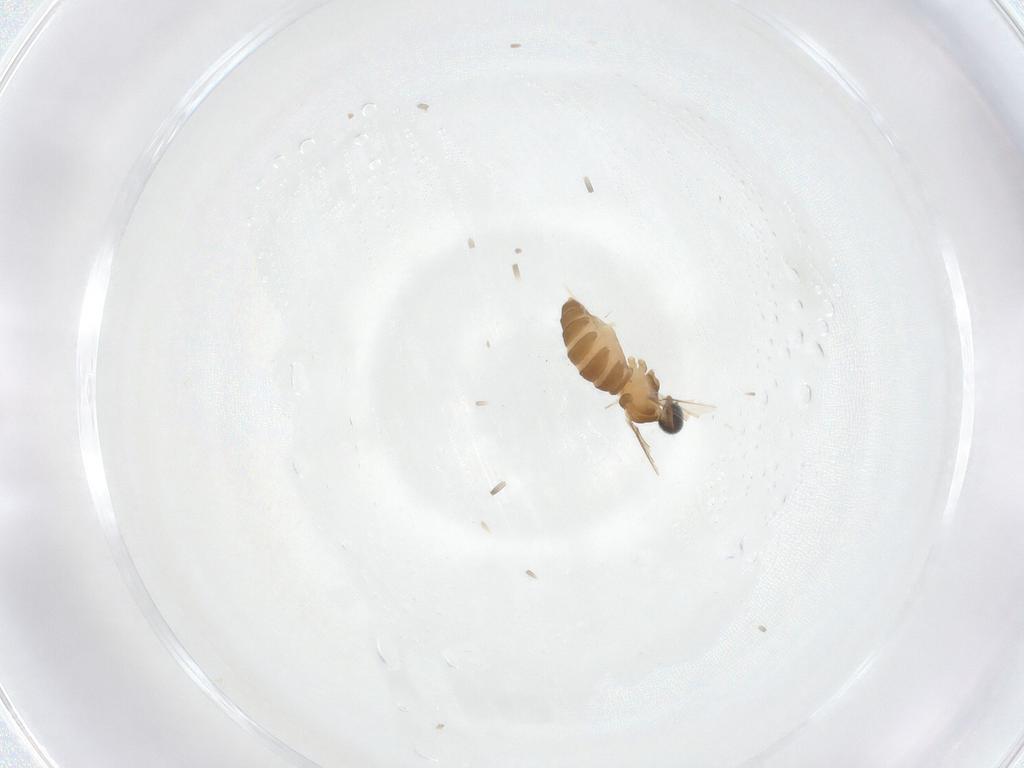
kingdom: Animalia
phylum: Arthropoda
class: Insecta
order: Diptera
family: Cecidomyiidae
